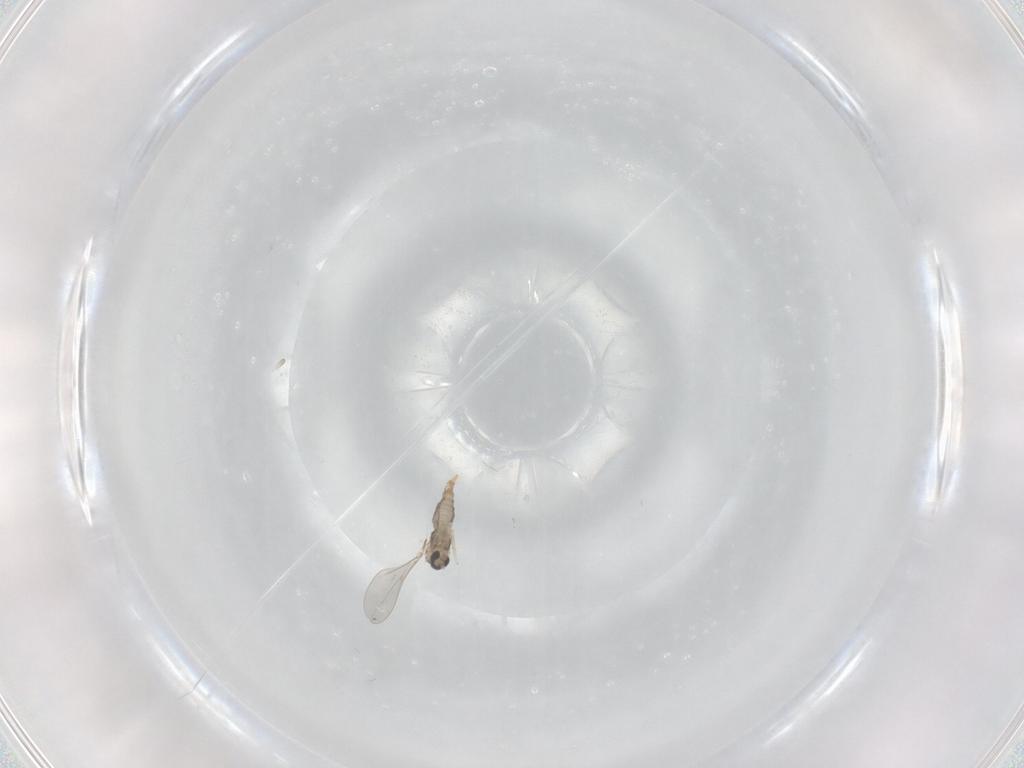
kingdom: Animalia
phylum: Arthropoda
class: Insecta
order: Diptera
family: Cecidomyiidae
